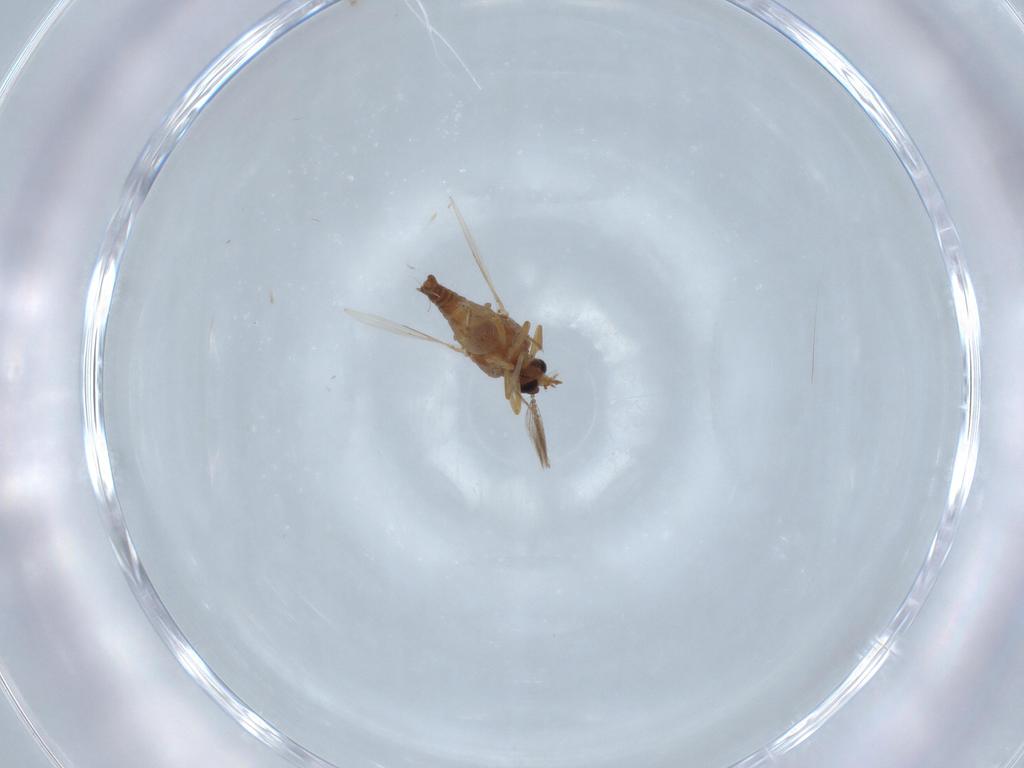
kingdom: Animalia
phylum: Arthropoda
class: Insecta
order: Diptera
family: Ceratopogonidae
